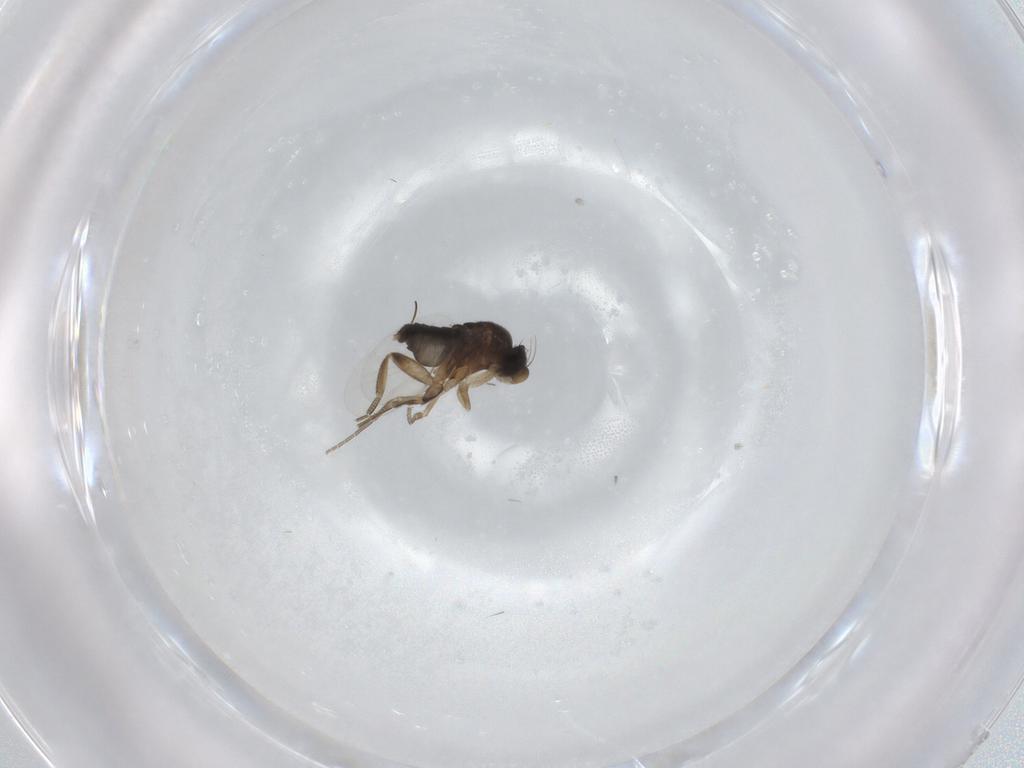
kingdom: Animalia
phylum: Arthropoda
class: Insecta
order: Diptera
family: Phoridae
